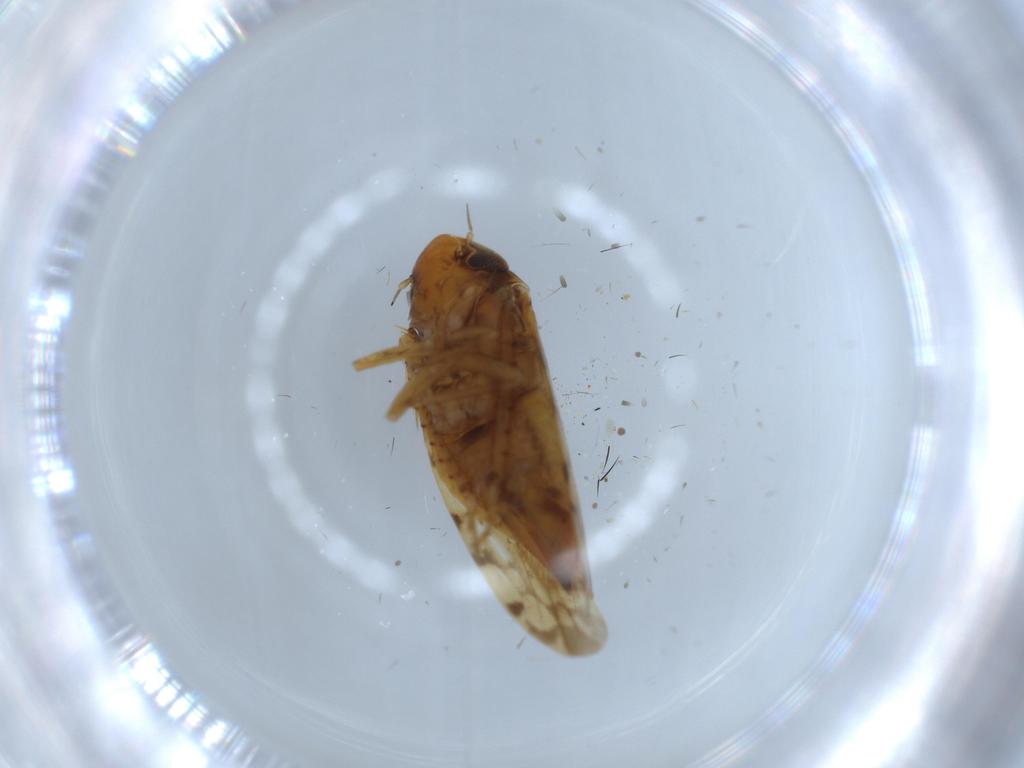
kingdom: Animalia
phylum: Arthropoda
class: Insecta
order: Hemiptera
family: Cicadellidae
